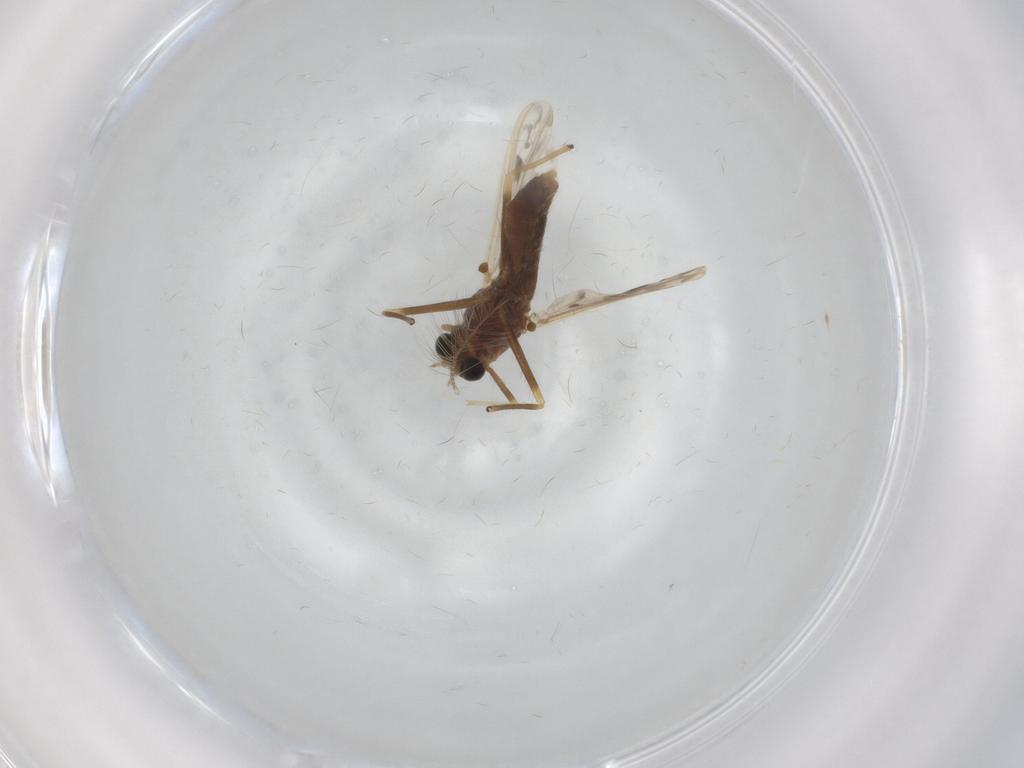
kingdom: Animalia
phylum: Arthropoda
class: Insecta
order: Diptera
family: Chironomidae
